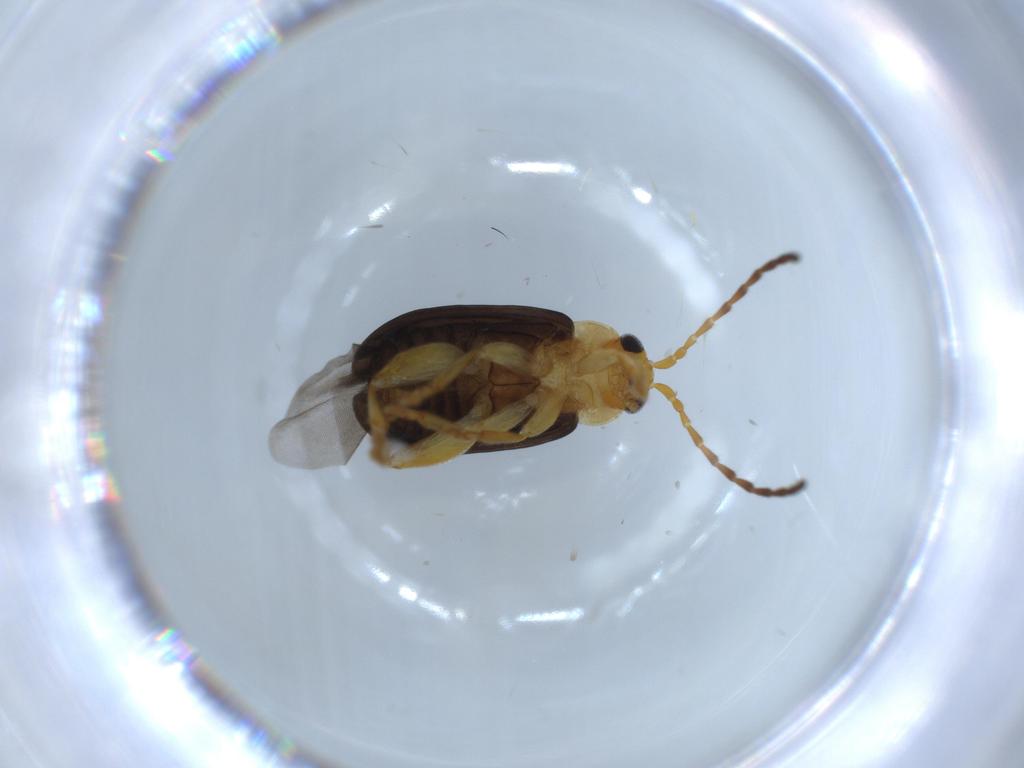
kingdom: Animalia
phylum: Arthropoda
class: Insecta
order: Coleoptera
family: Chrysomelidae
